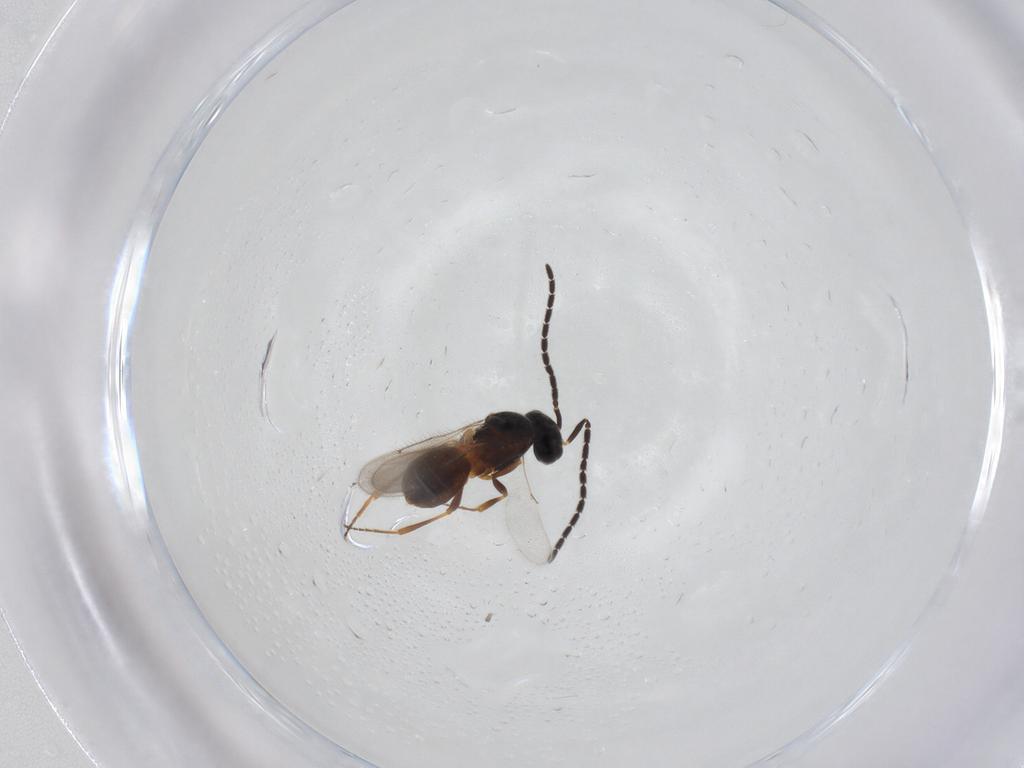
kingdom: Animalia
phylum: Arthropoda
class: Insecta
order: Hymenoptera
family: Scelionidae
